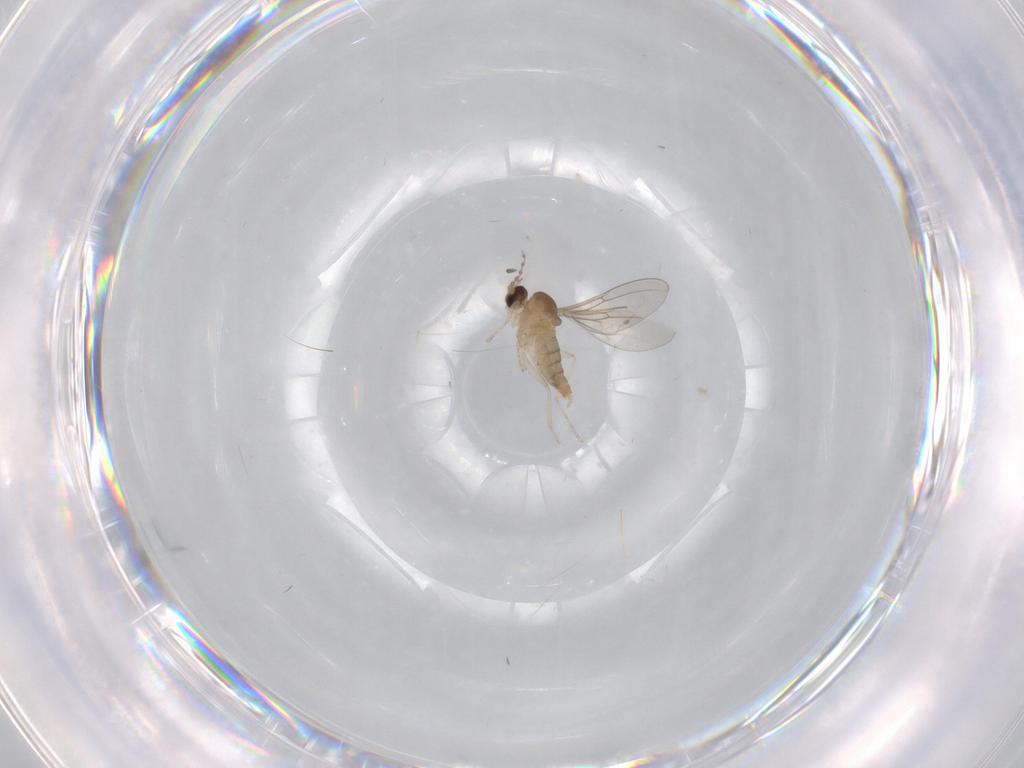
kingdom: Animalia
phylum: Arthropoda
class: Insecta
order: Diptera
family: Cecidomyiidae
